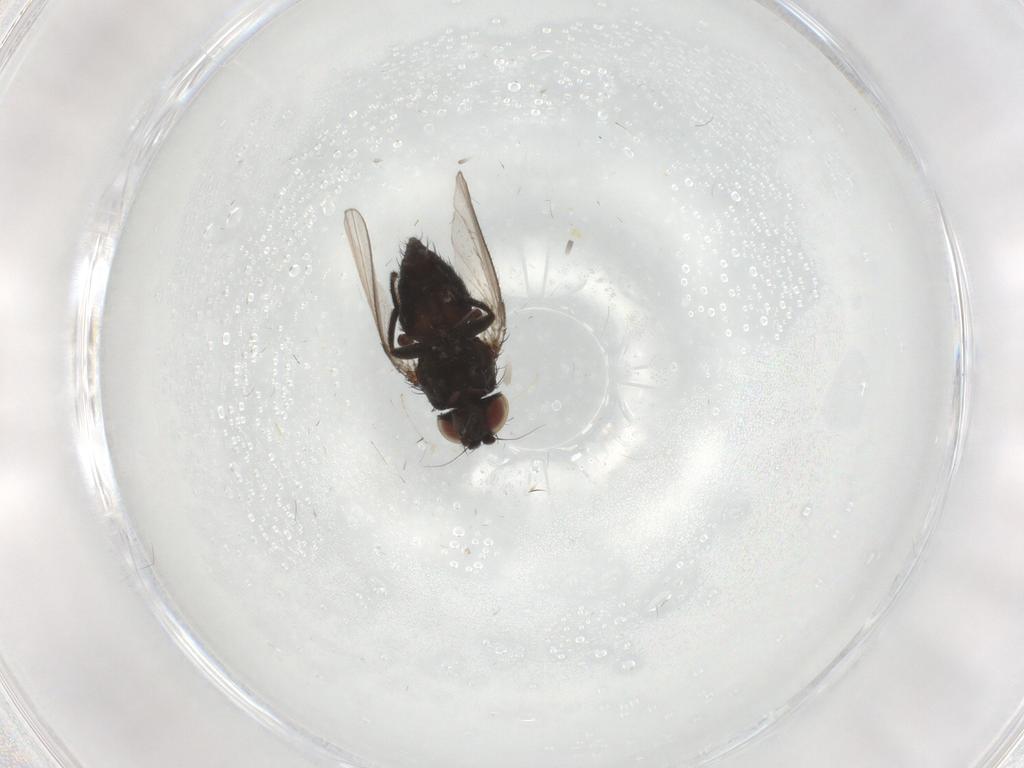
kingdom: Animalia
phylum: Arthropoda
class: Insecta
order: Diptera
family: Milichiidae
